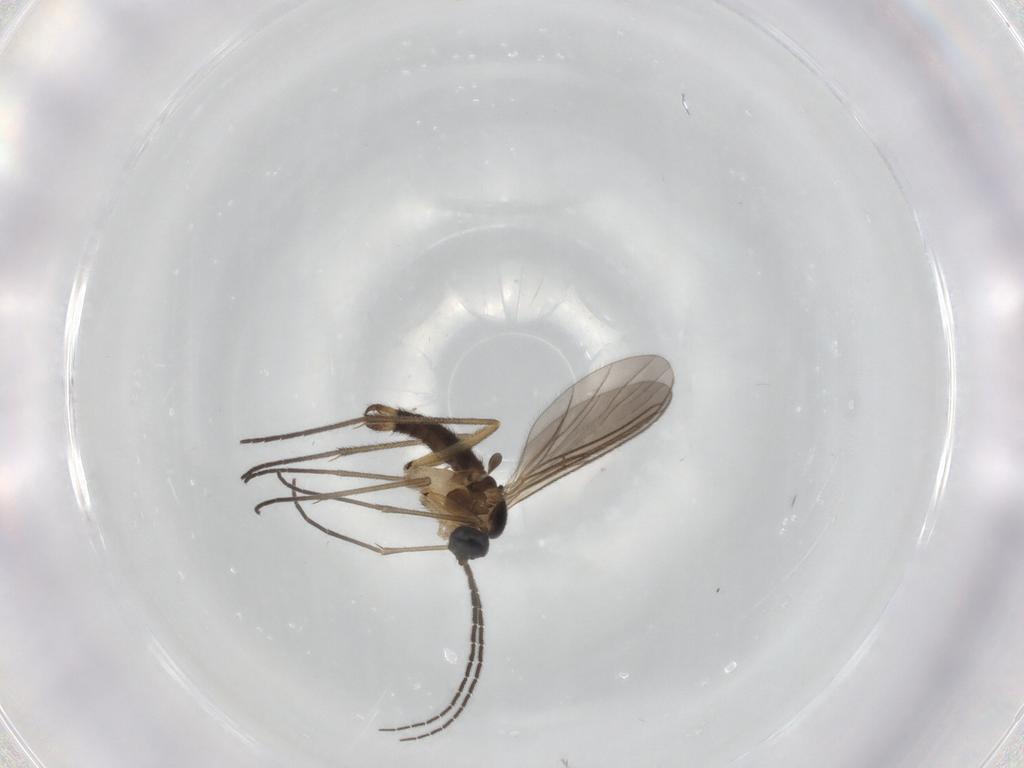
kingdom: Animalia
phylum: Arthropoda
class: Insecta
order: Diptera
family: Sciaridae
